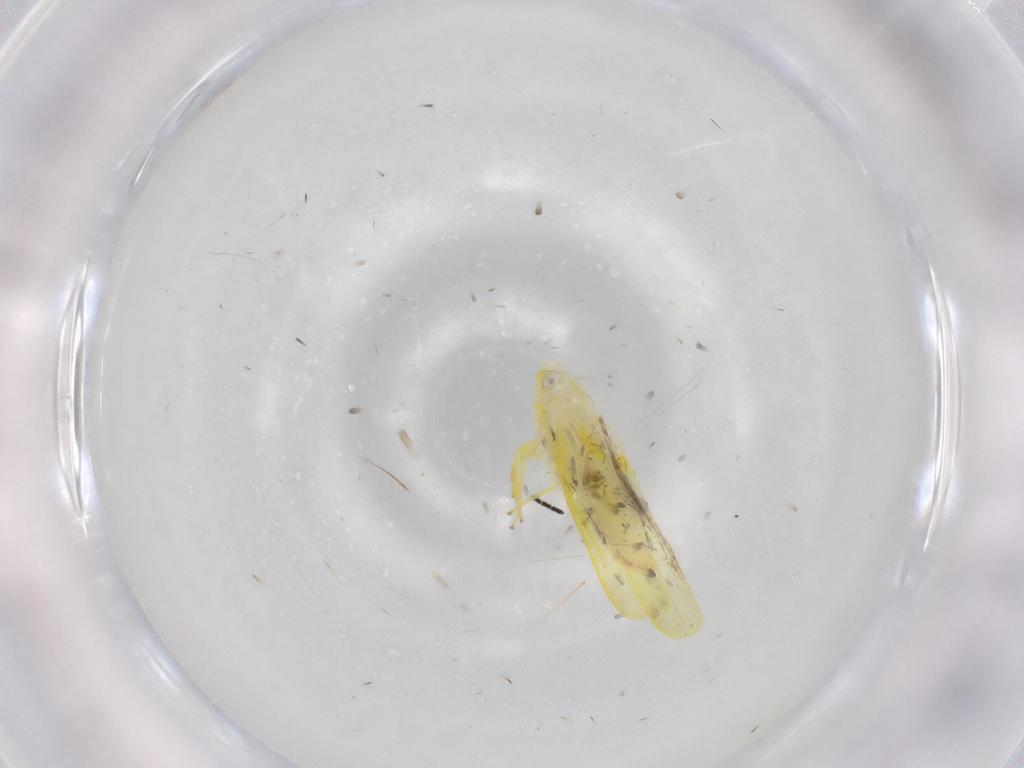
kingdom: Animalia
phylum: Arthropoda
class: Insecta
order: Hemiptera
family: Cicadellidae
